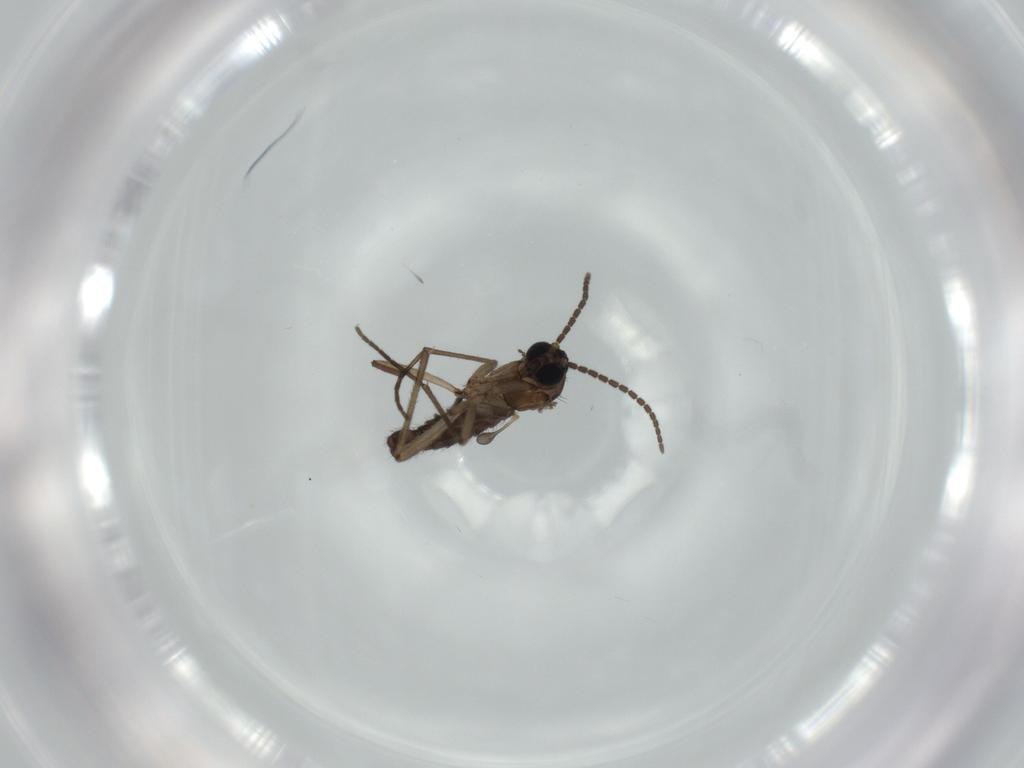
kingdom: Animalia
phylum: Arthropoda
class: Insecta
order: Diptera
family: Sciaridae
